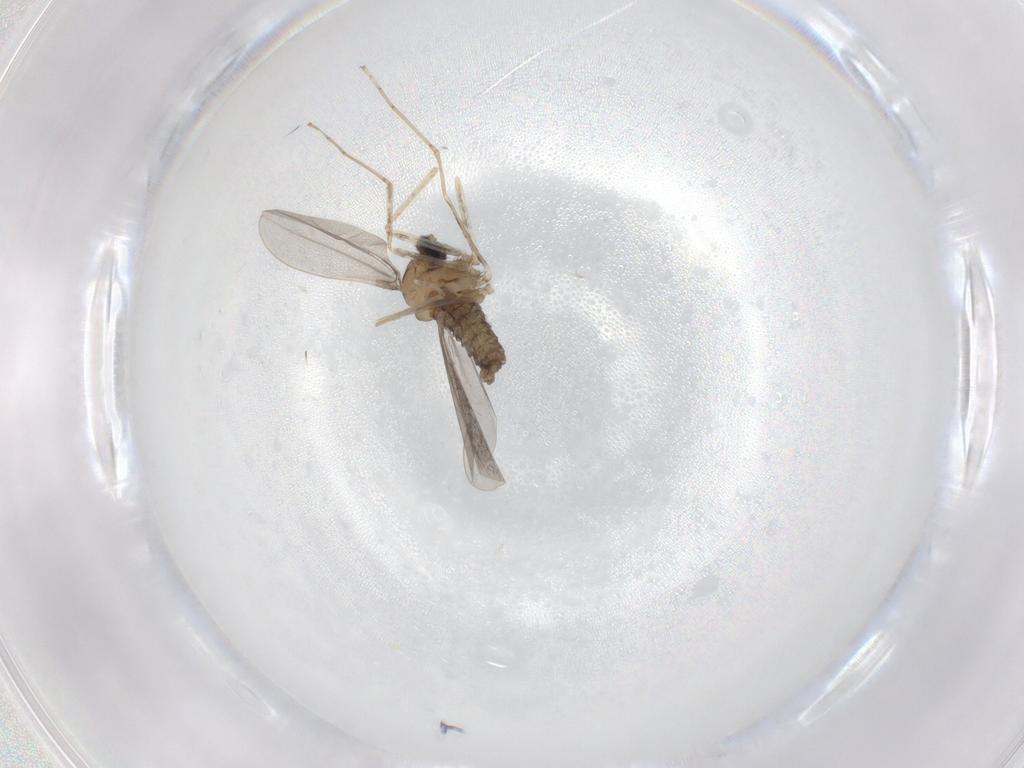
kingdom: Animalia
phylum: Arthropoda
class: Insecta
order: Diptera
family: Cecidomyiidae
